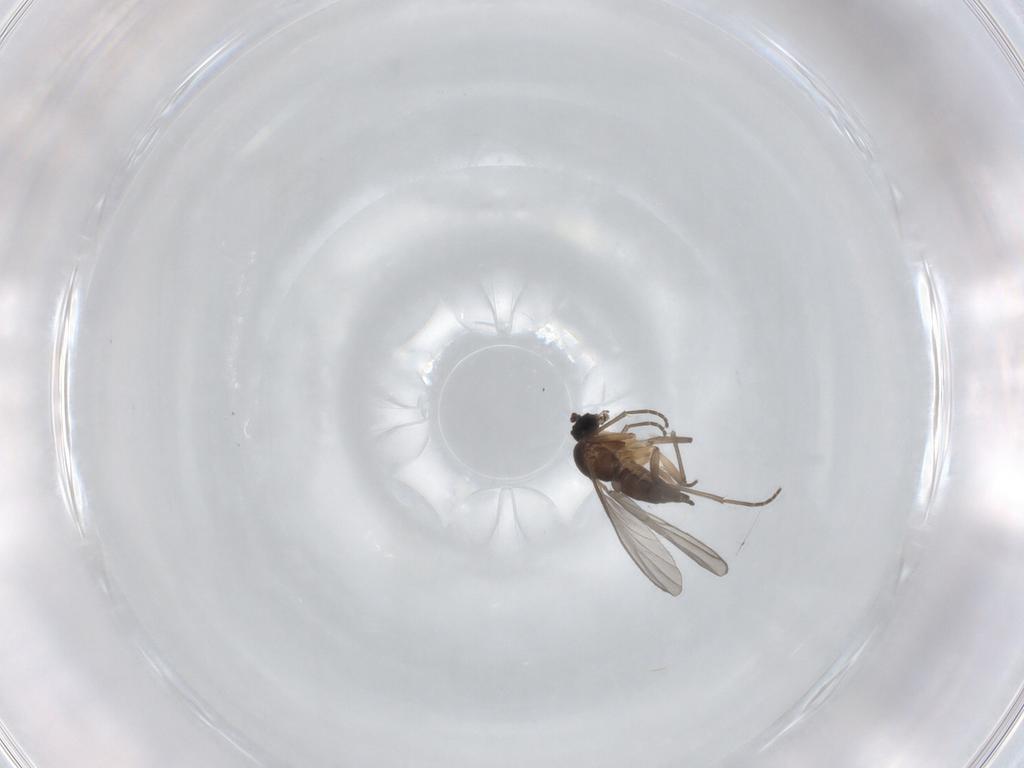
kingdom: Animalia
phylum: Arthropoda
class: Insecta
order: Diptera
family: Sciaridae
